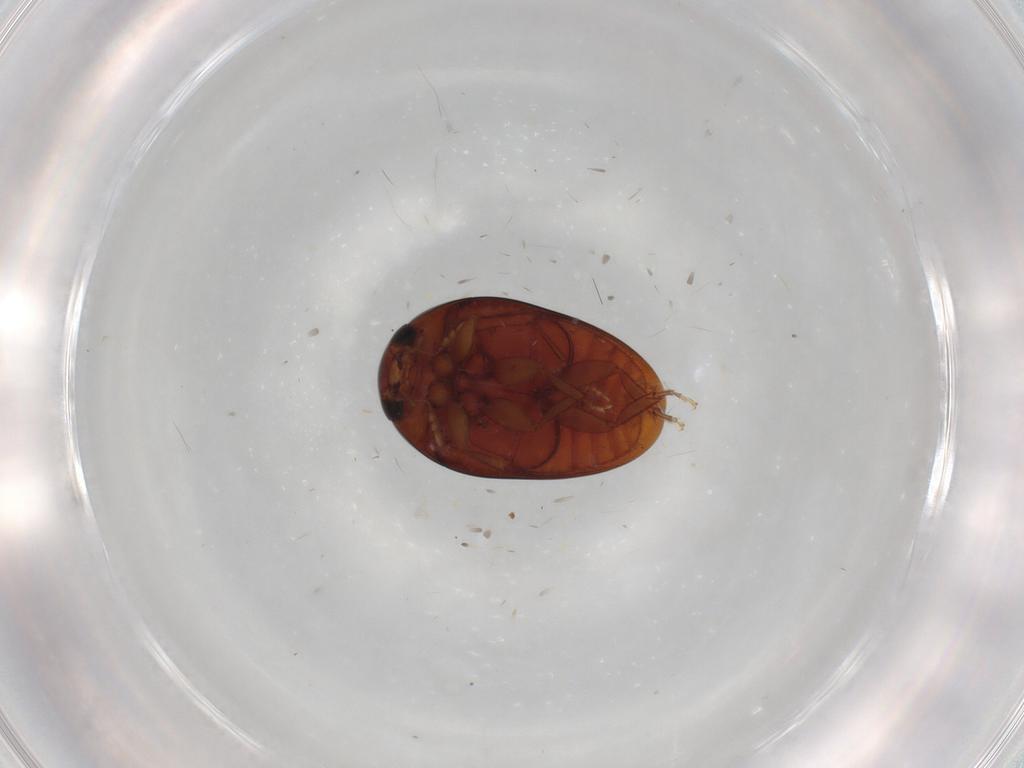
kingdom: Animalia
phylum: Arthropoda
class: Insecta
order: Coleoptera
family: Phalacridae
